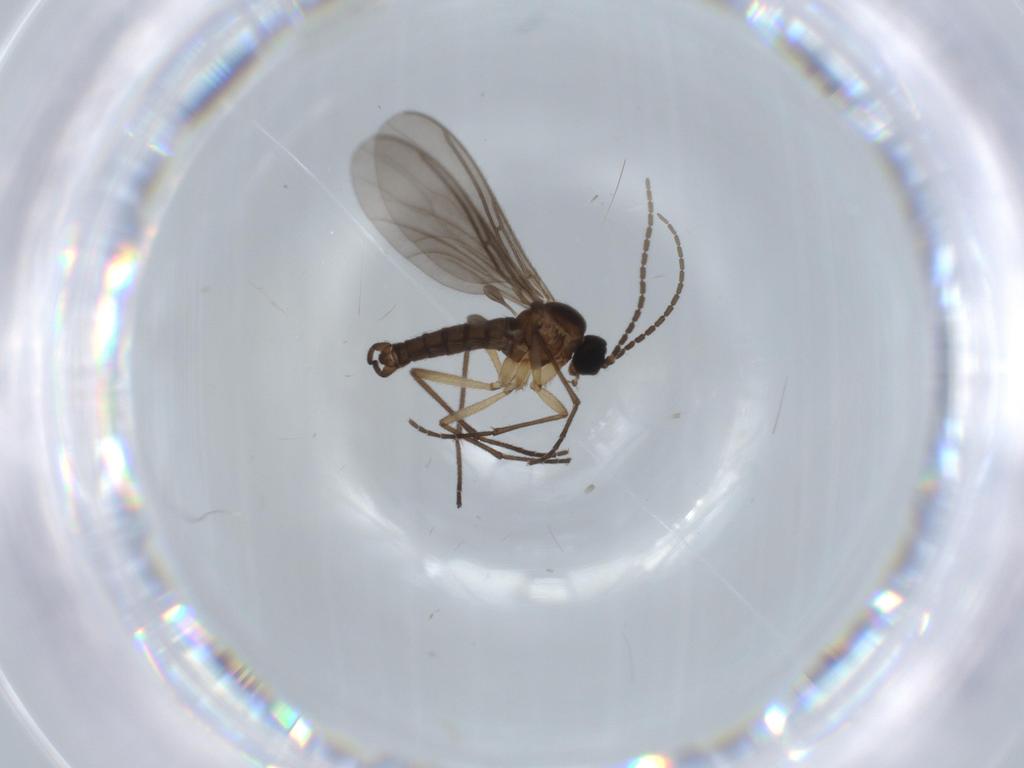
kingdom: Animalia
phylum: Arthropoda
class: Insecta
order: Diptera
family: Sciaridae
